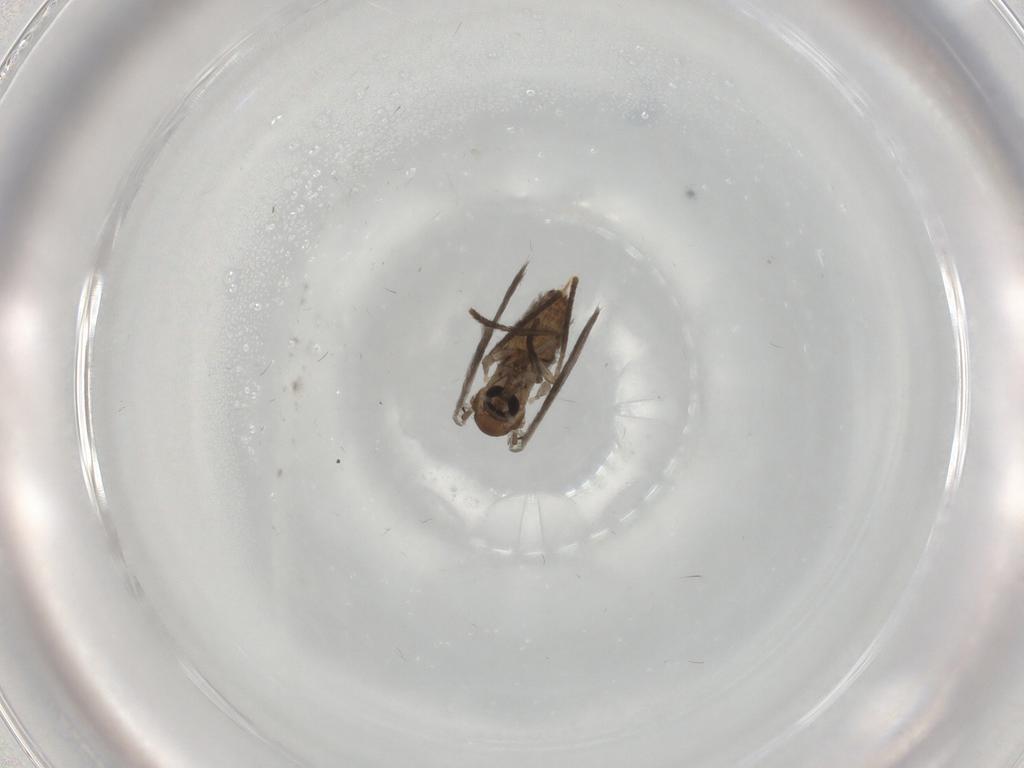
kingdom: Animalia
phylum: Arthropoda
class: Insecta
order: Diptera
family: Psychodidae
